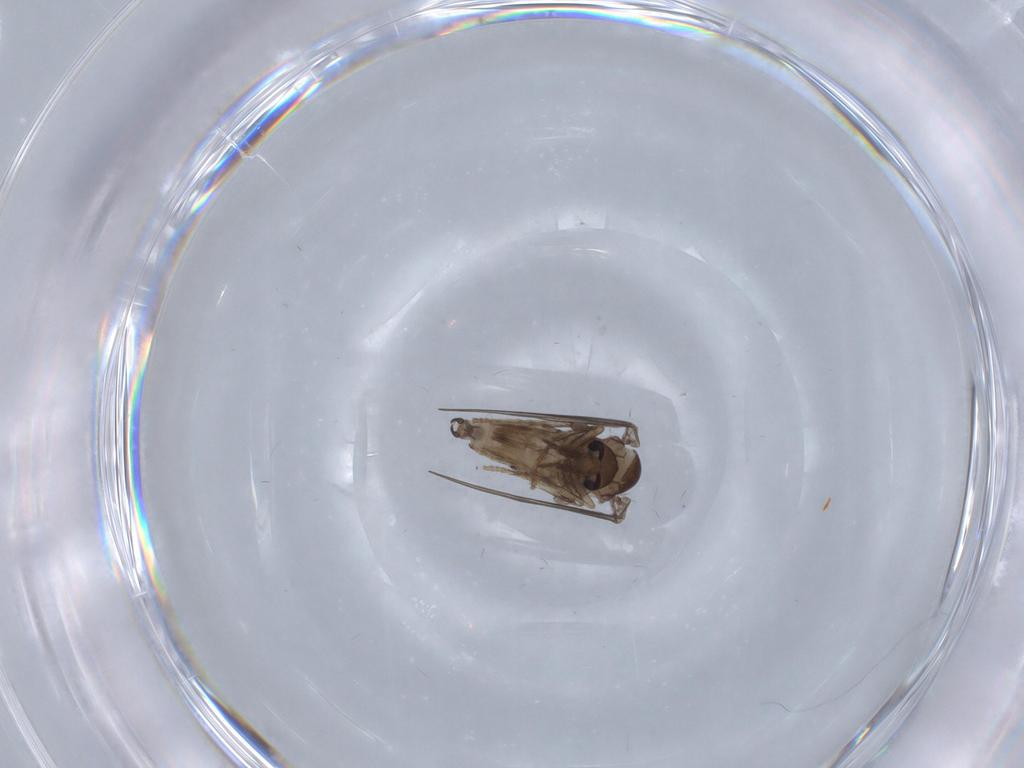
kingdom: Animalia
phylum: Arthropoda
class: Insecta
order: Diptera
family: Psychodidae
